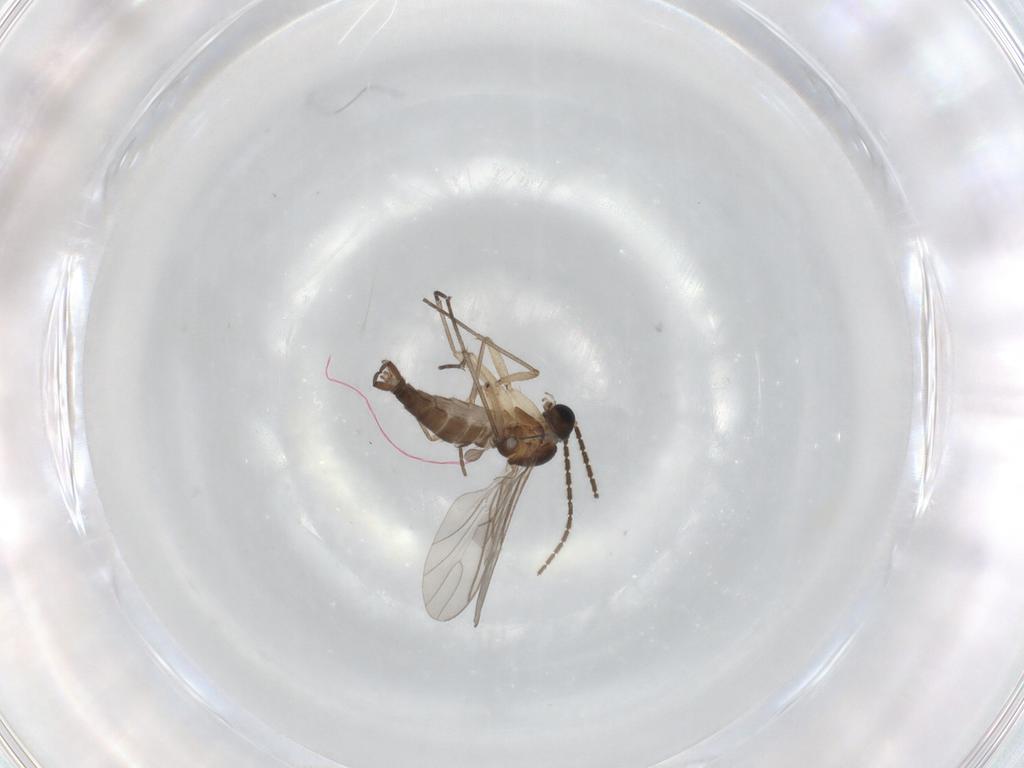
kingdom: Animalia
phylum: Arthropoda
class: Insecta
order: Diptera
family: Sciaridae
